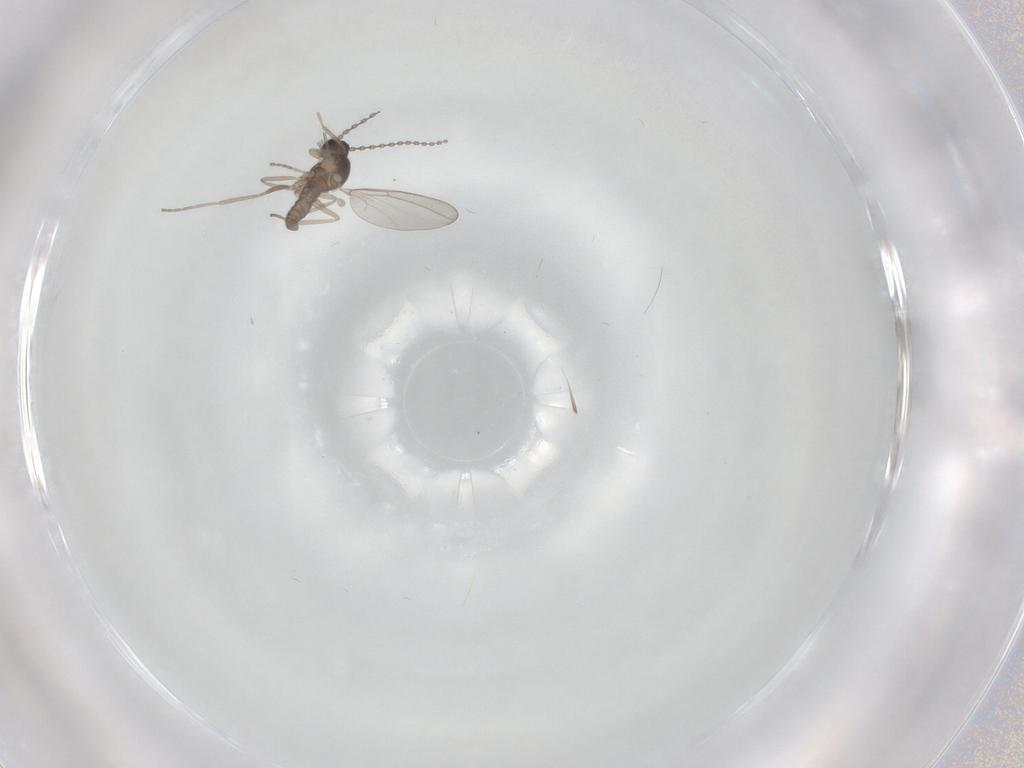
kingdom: Animalia
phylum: Arthropoda
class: Insecta
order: Diptera
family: Cecidomyiidae
